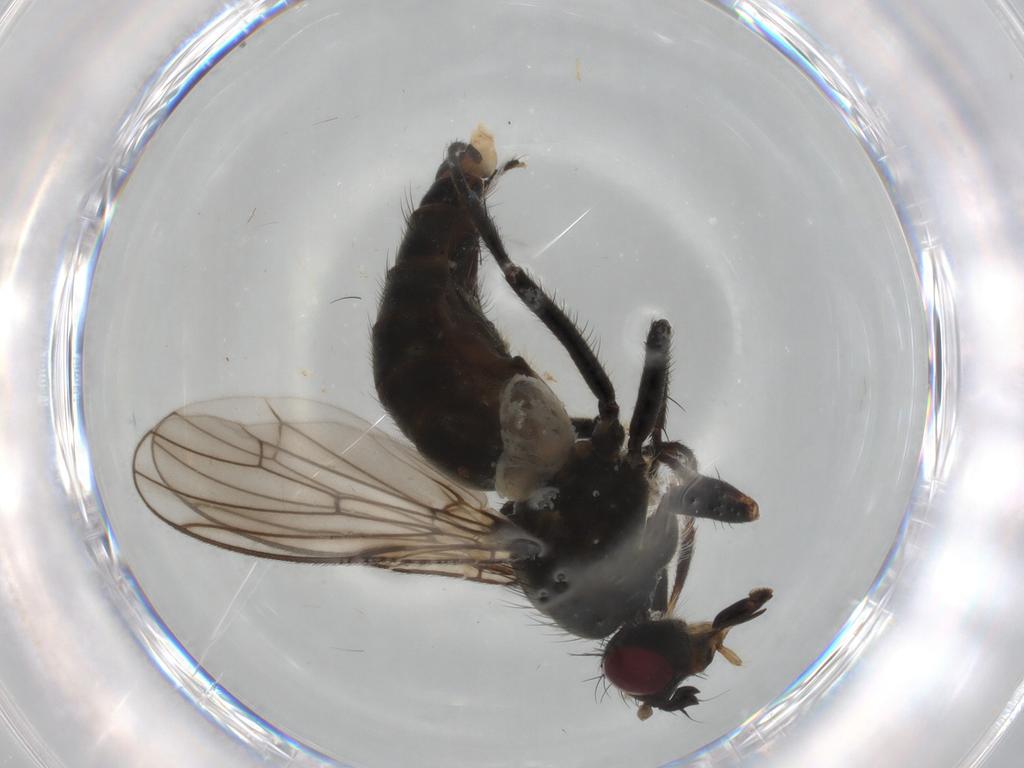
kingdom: Animalia
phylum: Arthropoda
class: Insecta
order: Diptera
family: Scathophagidae
